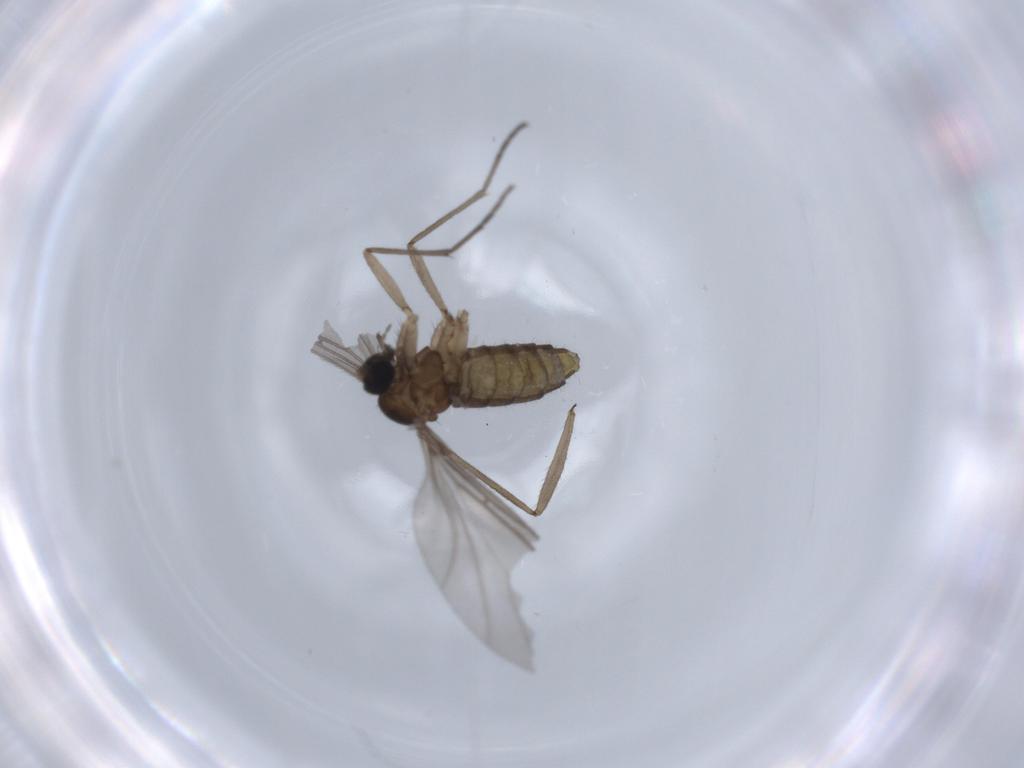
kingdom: Animalia
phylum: Arthropoda
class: Insecta
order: Diptera
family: Sciaridae
